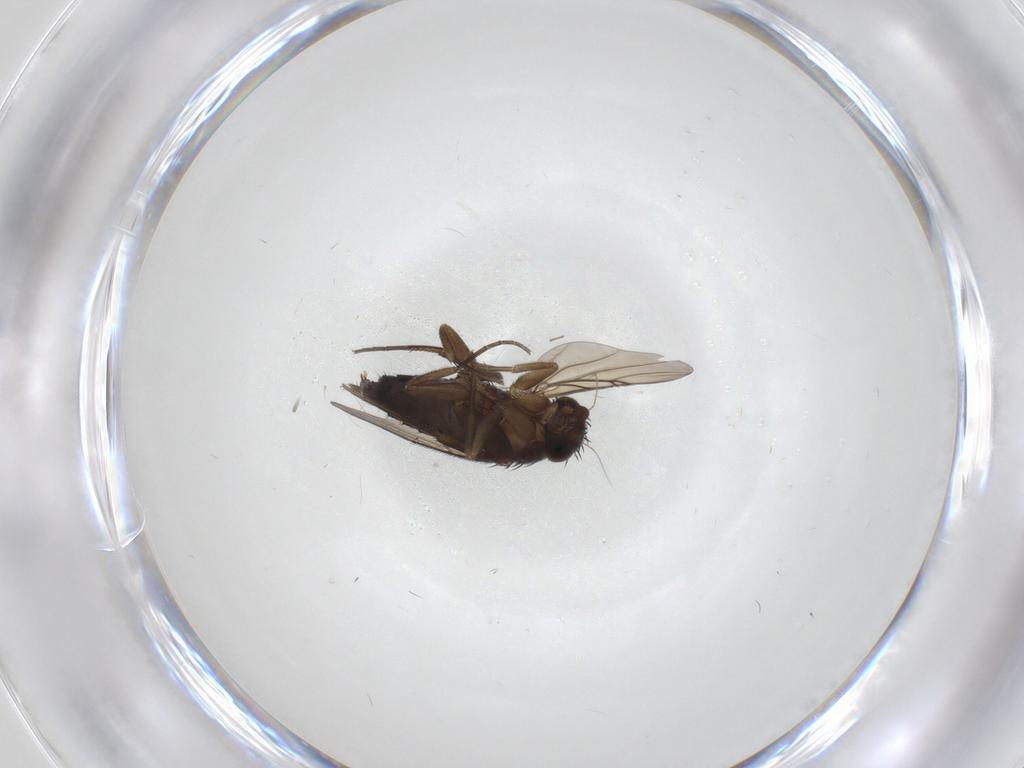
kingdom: Animalia
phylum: Arthropoda
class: Insecta
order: Diptera
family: Phoridae
